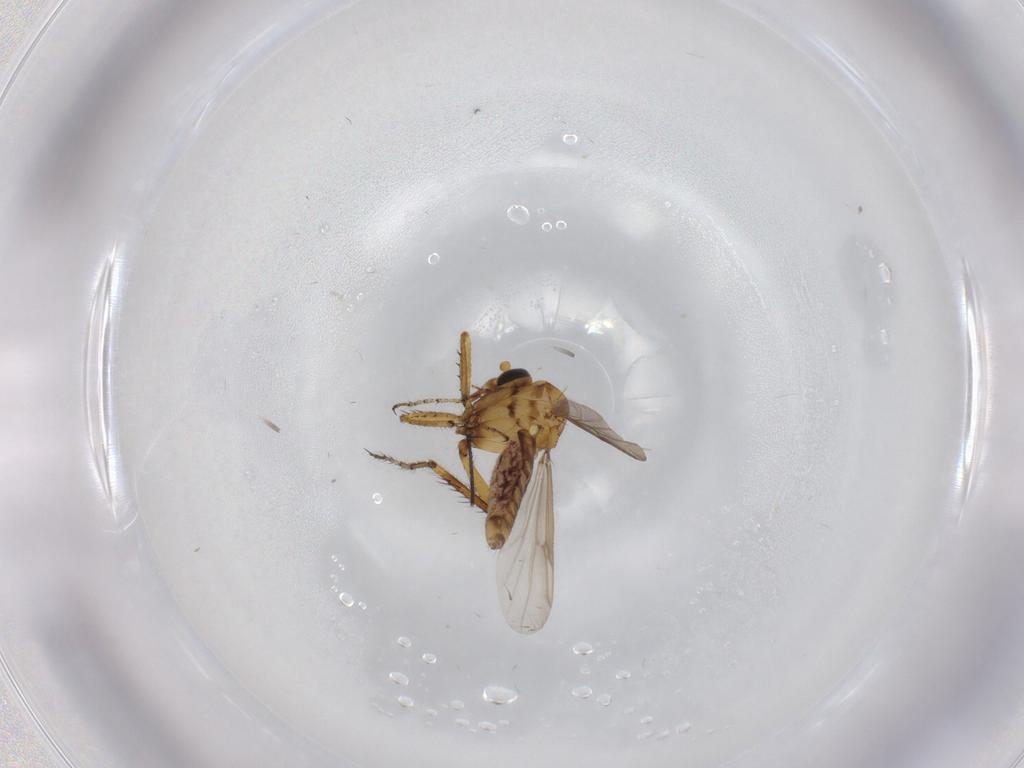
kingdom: Animalia
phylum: Arthropoda
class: Insecta
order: Diptera
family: Ceratopogonidae
